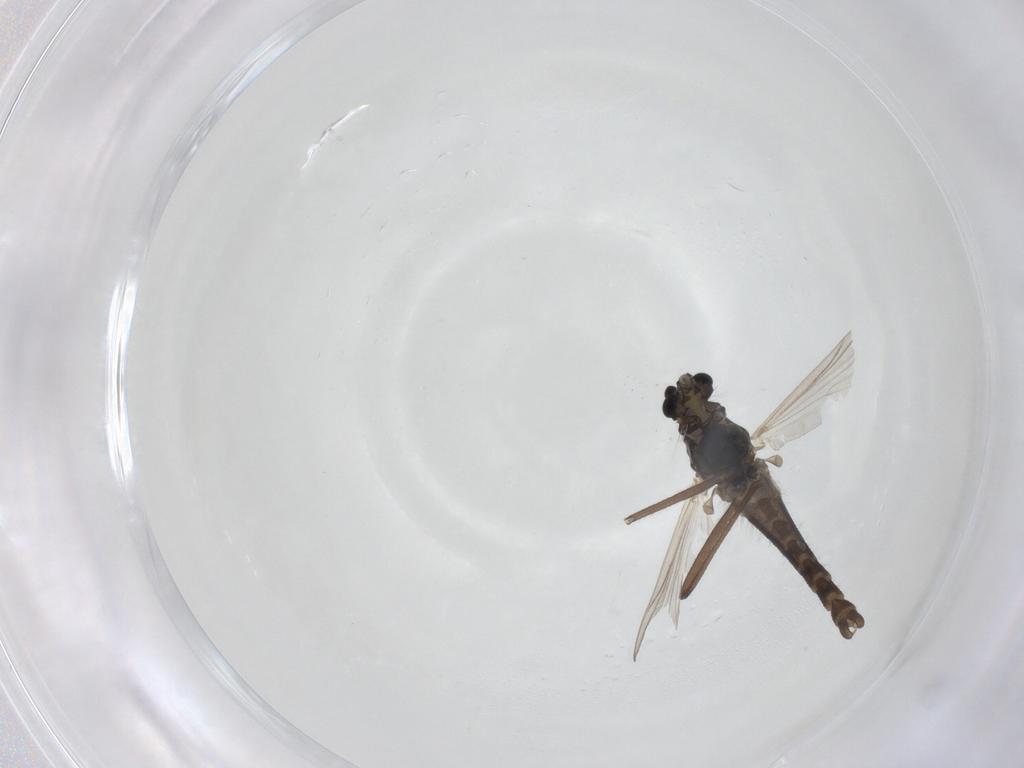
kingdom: Animalia
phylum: Arthropoda
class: Insecta
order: Diptera
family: Chironomidae
